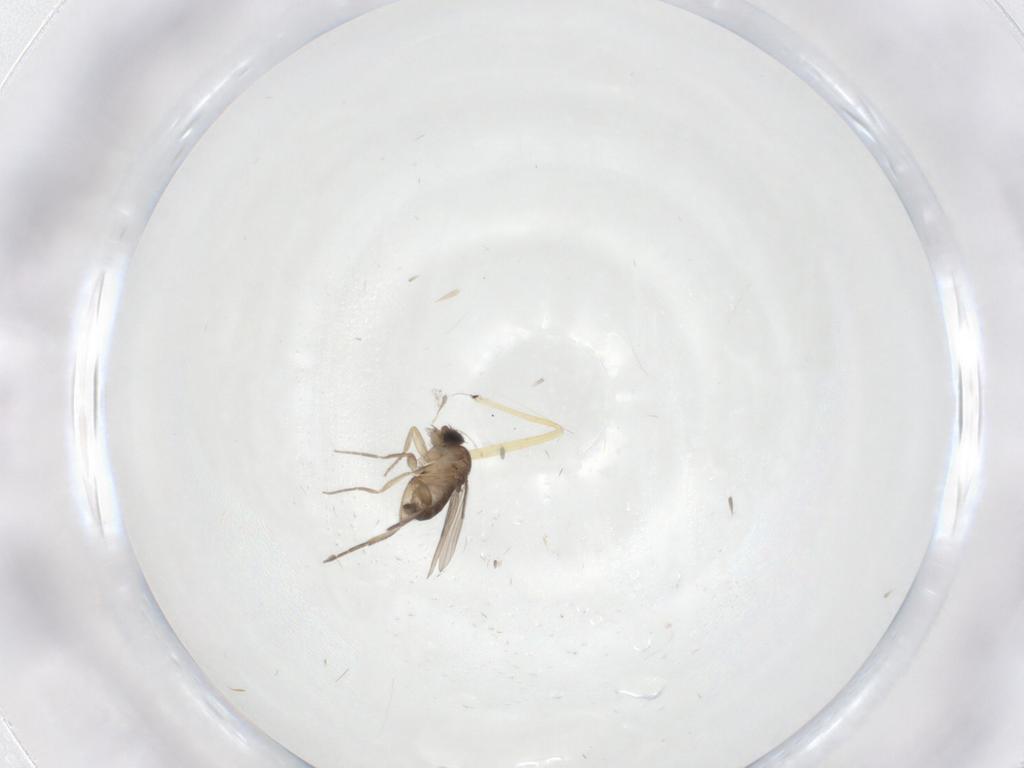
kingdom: Animalia
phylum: Arthropoda
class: Insecta
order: Diptera
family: Phoridae
